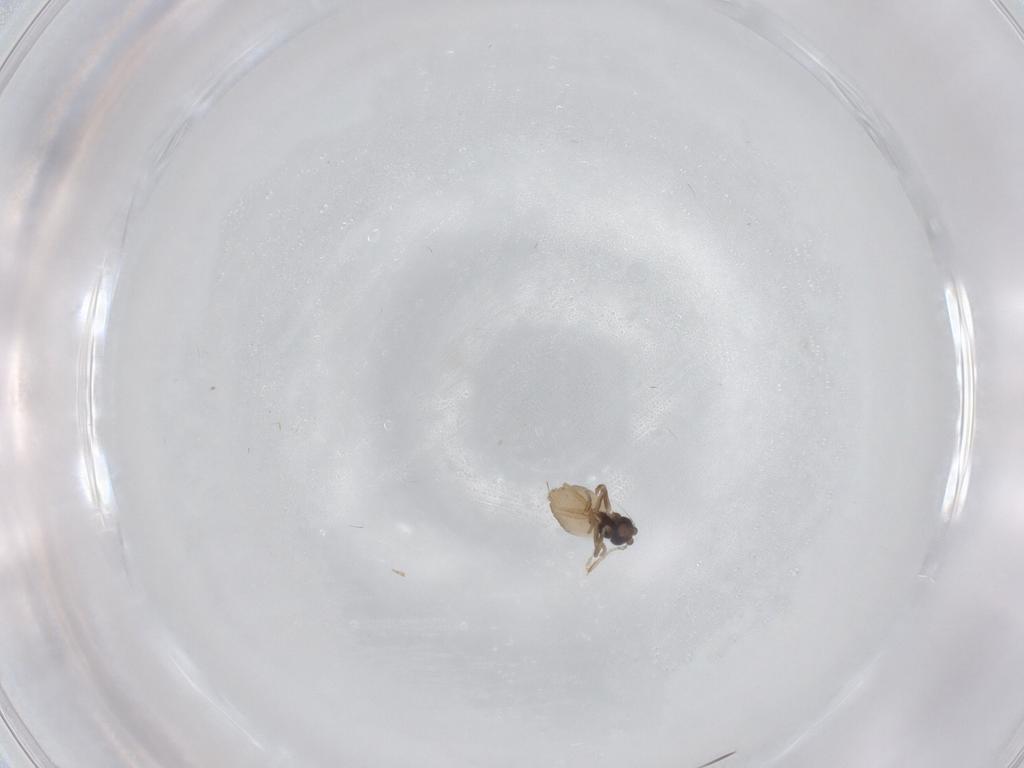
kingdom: Animalia
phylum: Arthropoda
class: Insecta
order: Diptera
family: Phoridae
